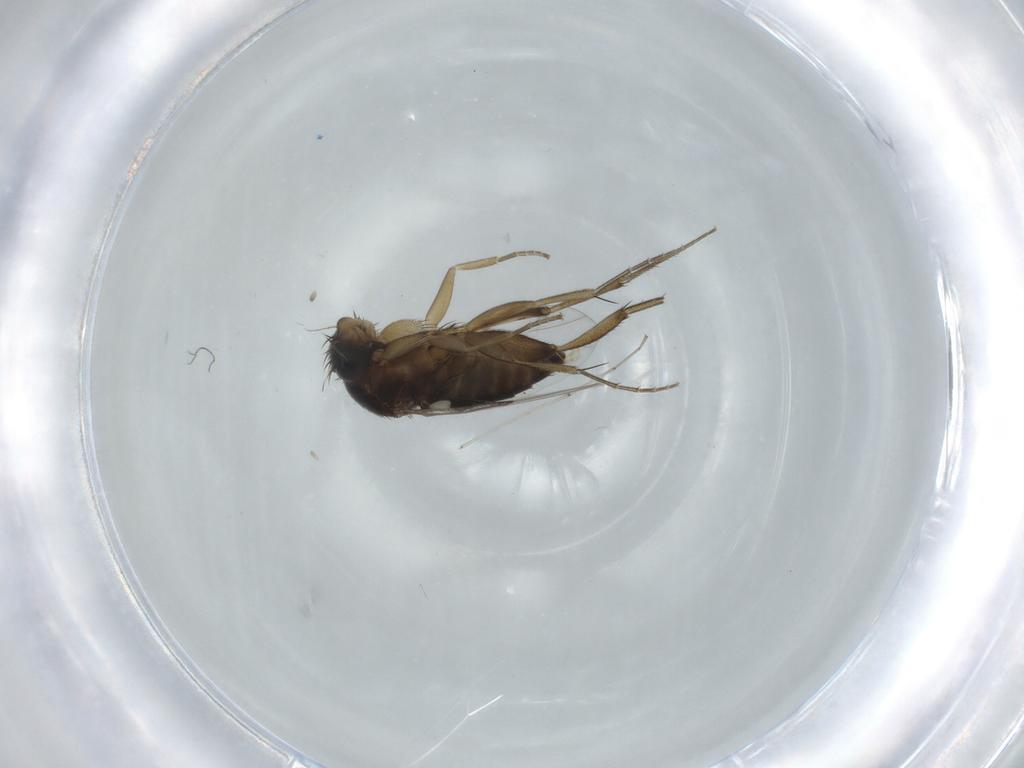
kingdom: Animalia
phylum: Arthropoda
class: Insecta
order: Diptera
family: Phoridae
